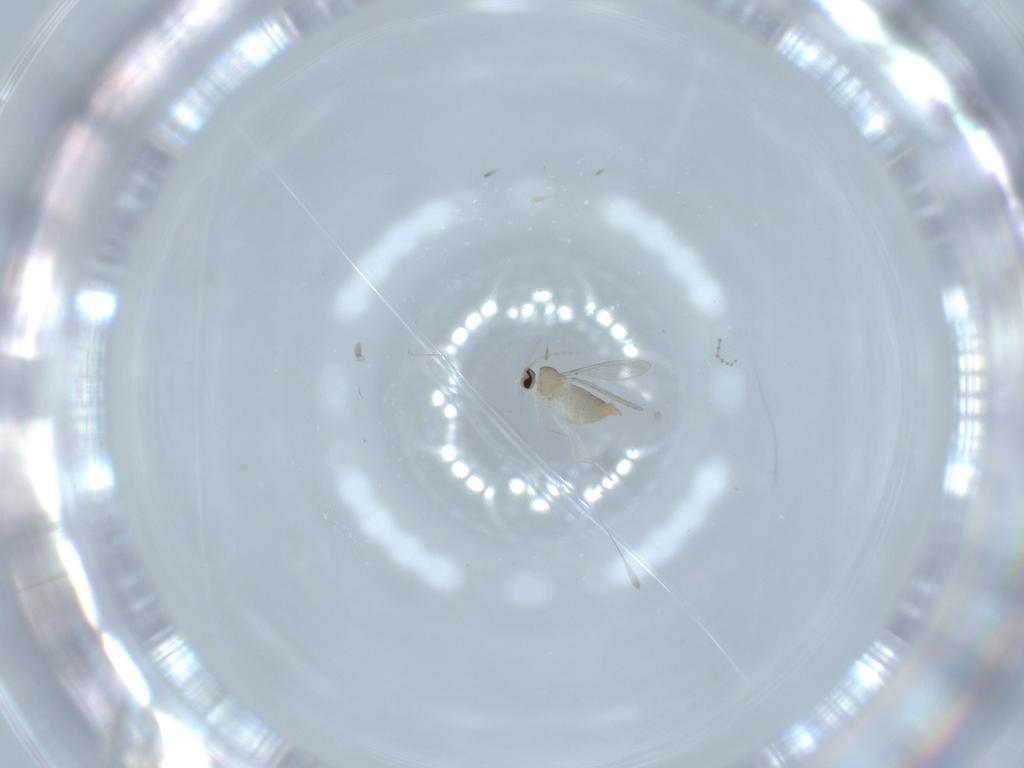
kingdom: Animalia
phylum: Arthropoda
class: Insecta
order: Diptera
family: Cecidomyiidae
